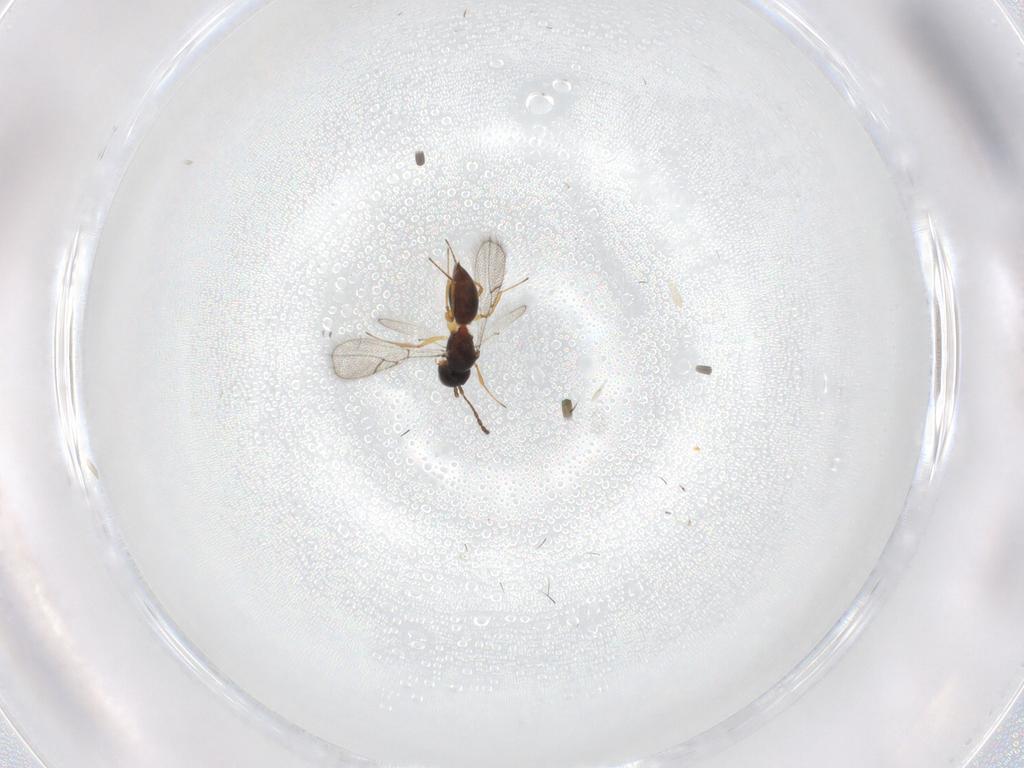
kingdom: Animalia
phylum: Arthropoda
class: Insecta
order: Hymenoptera
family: Figitidae
